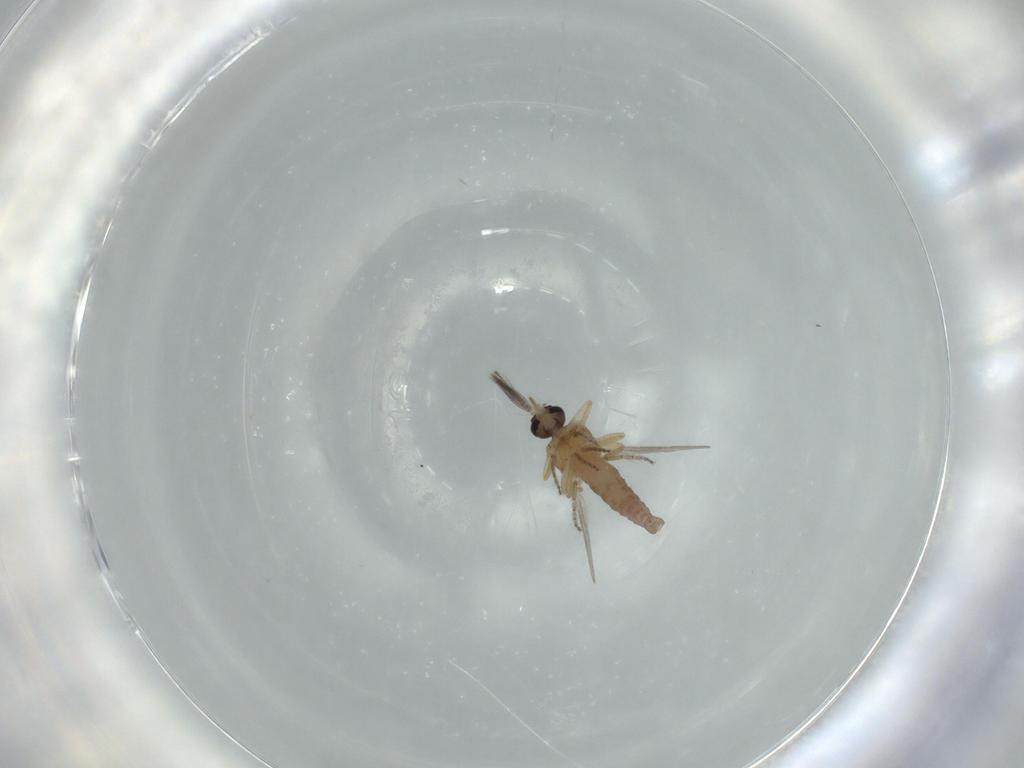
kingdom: Animalia
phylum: Arthropoda
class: Insecta
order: Diptera
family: Ceratopogonidae
